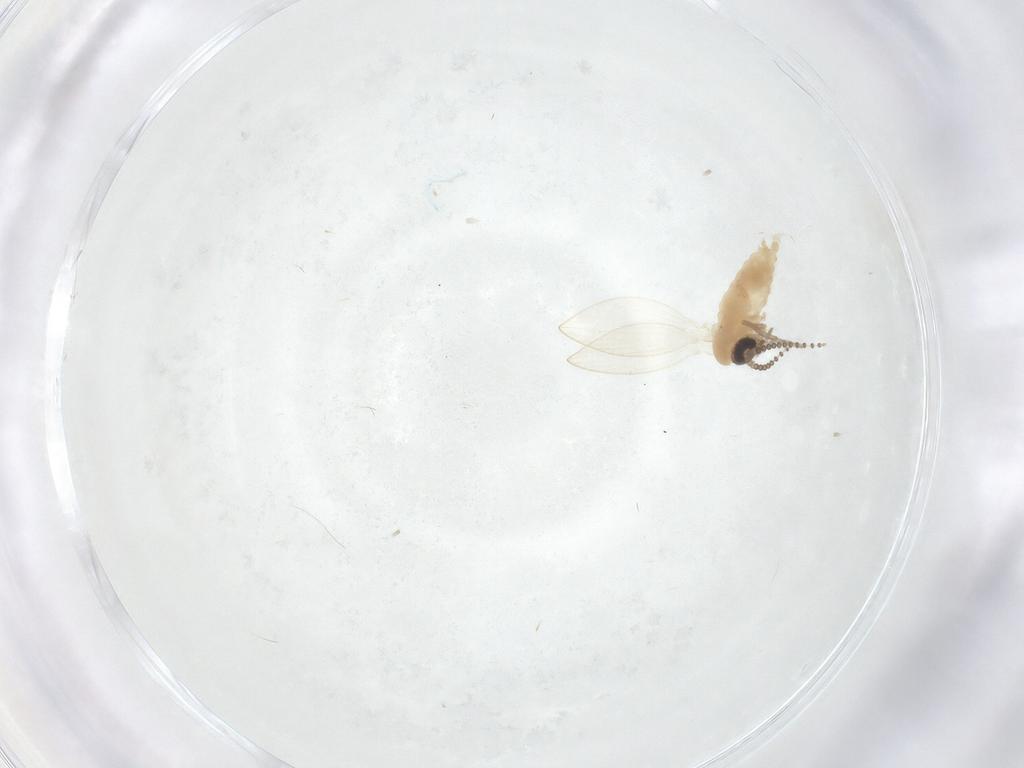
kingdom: Animalia
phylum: Arthropoda
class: Insecta
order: Diptera
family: Psychodidae
